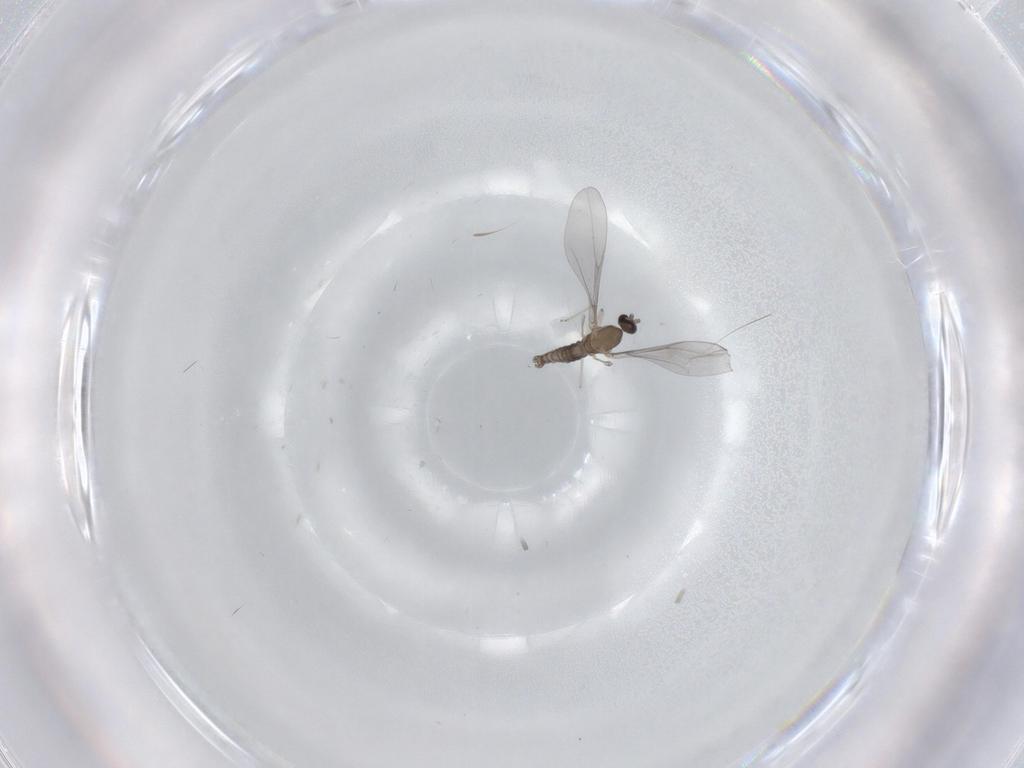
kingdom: Animalia
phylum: Arthropoda
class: Insecta
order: Diptera
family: Cecidomyiidae
